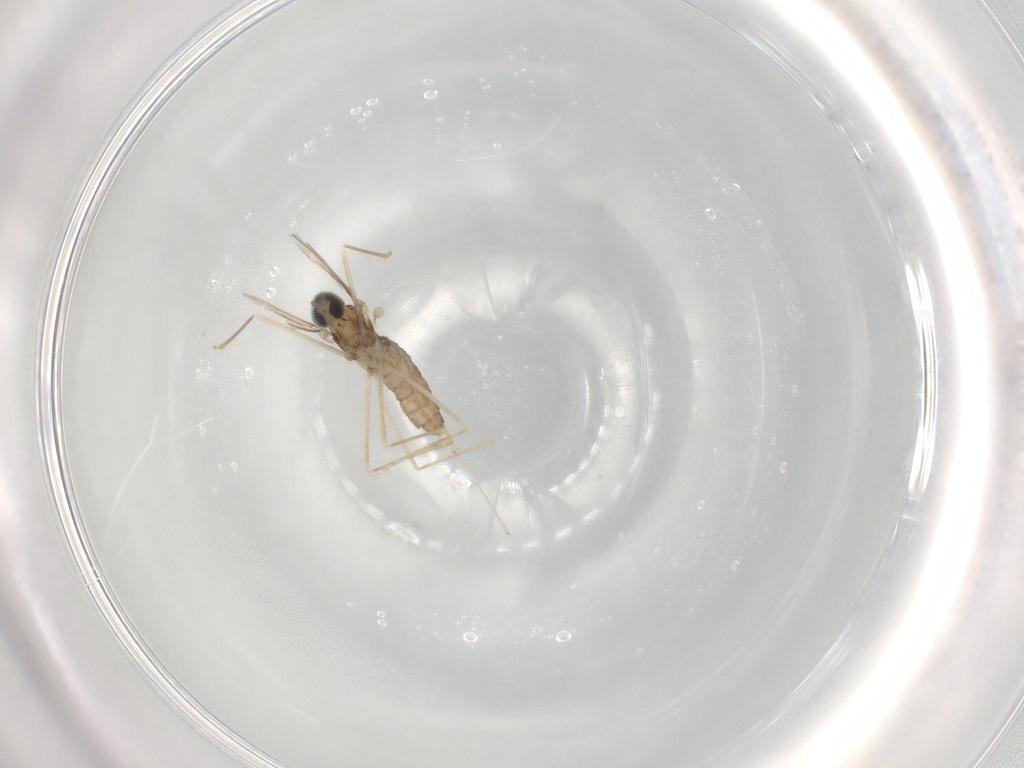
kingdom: Animalia
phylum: Arthropoda
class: Insecta
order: Diptera
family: Cecidomyiidae
